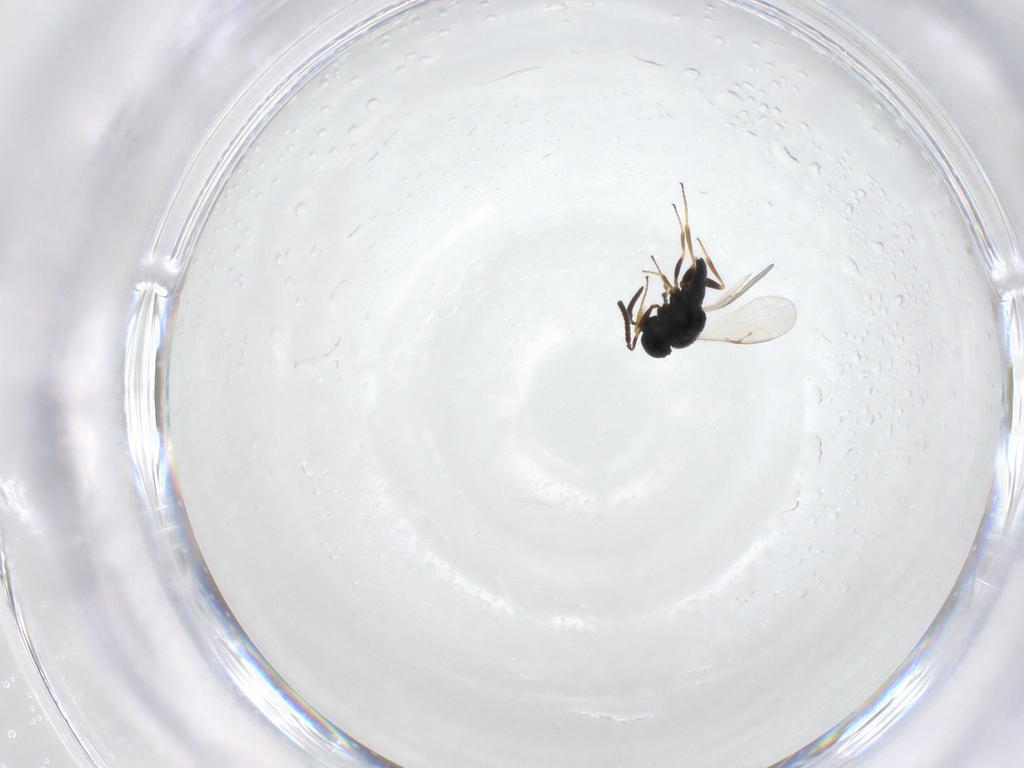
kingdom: Animalia
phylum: Arthropoda
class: Insecta
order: Hymenoptera
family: Scelionidae
